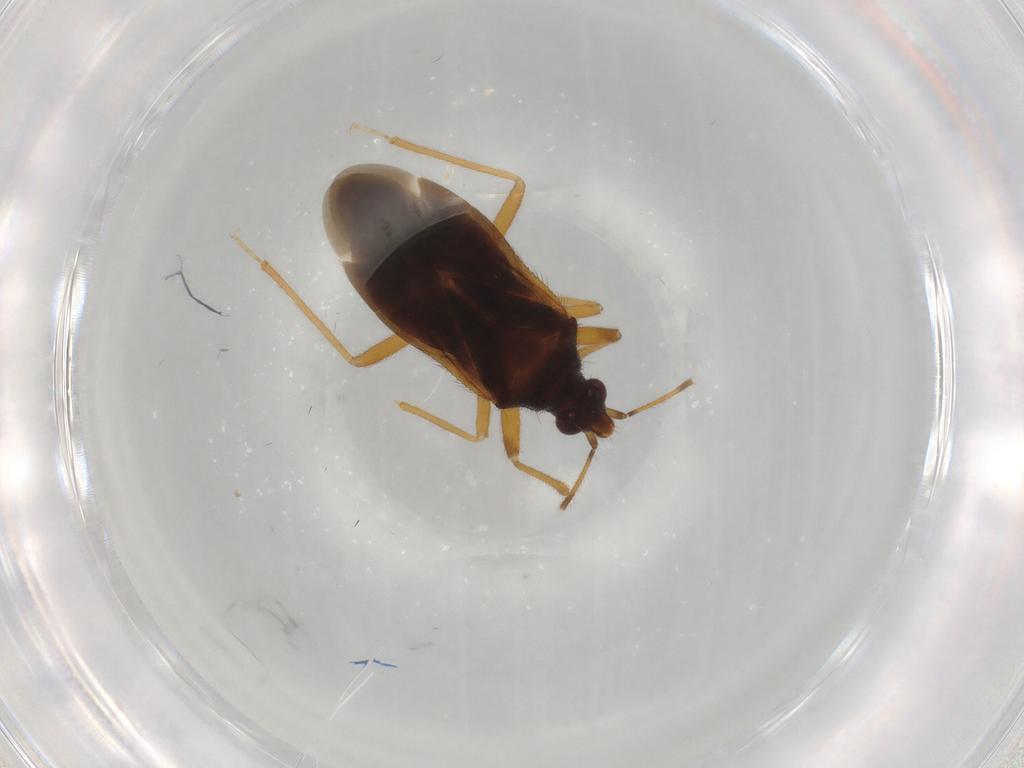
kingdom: Animalia
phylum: Arthropoda
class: Insecta
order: Hemiptera
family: Anthocoridae
